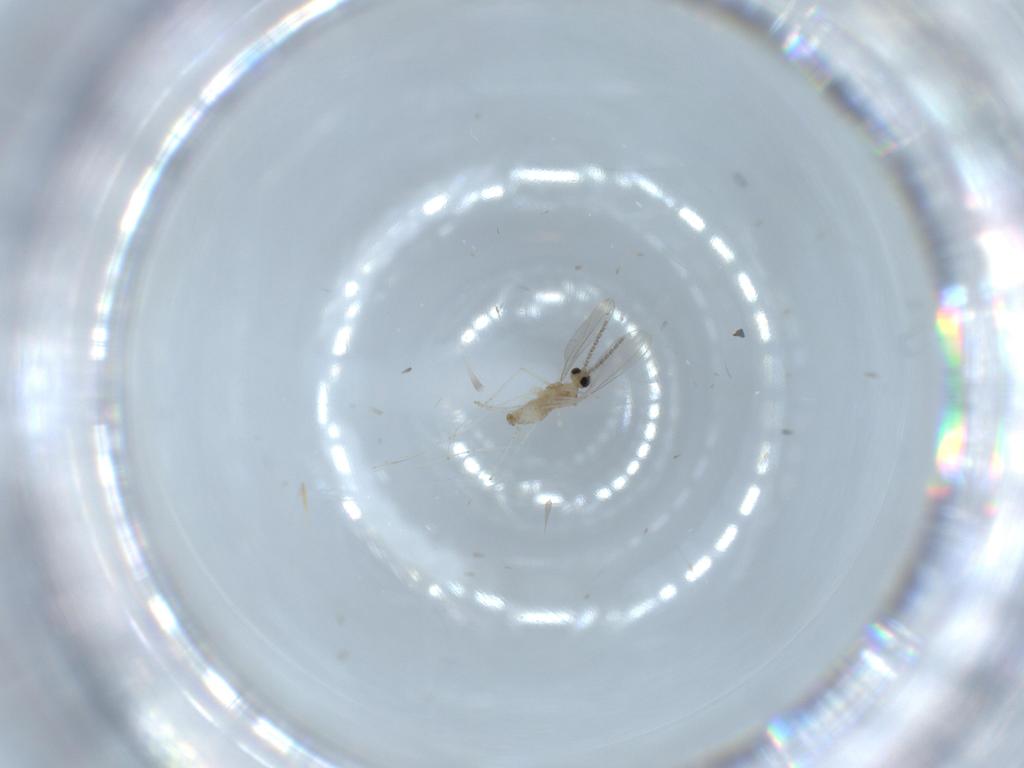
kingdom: Animalia
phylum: Arthropoda
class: Insecta
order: Diptera
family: Cecidomyiidae
